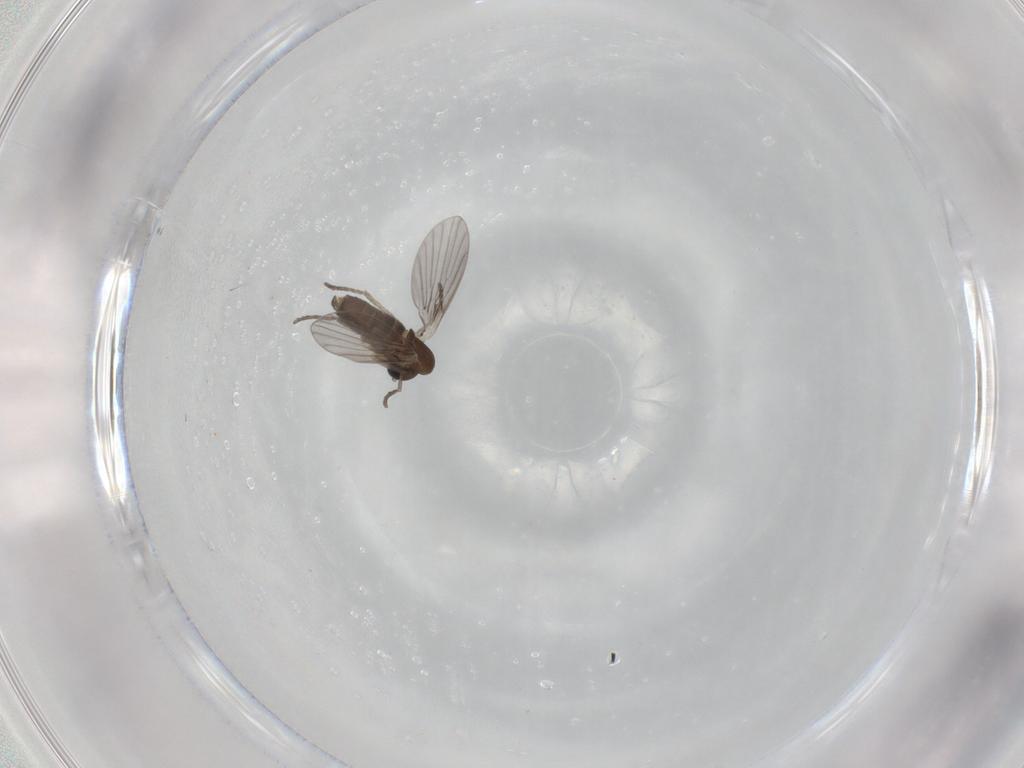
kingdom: Animalia
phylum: Arthropoda
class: Insecta
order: Diptera
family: Phoridae
